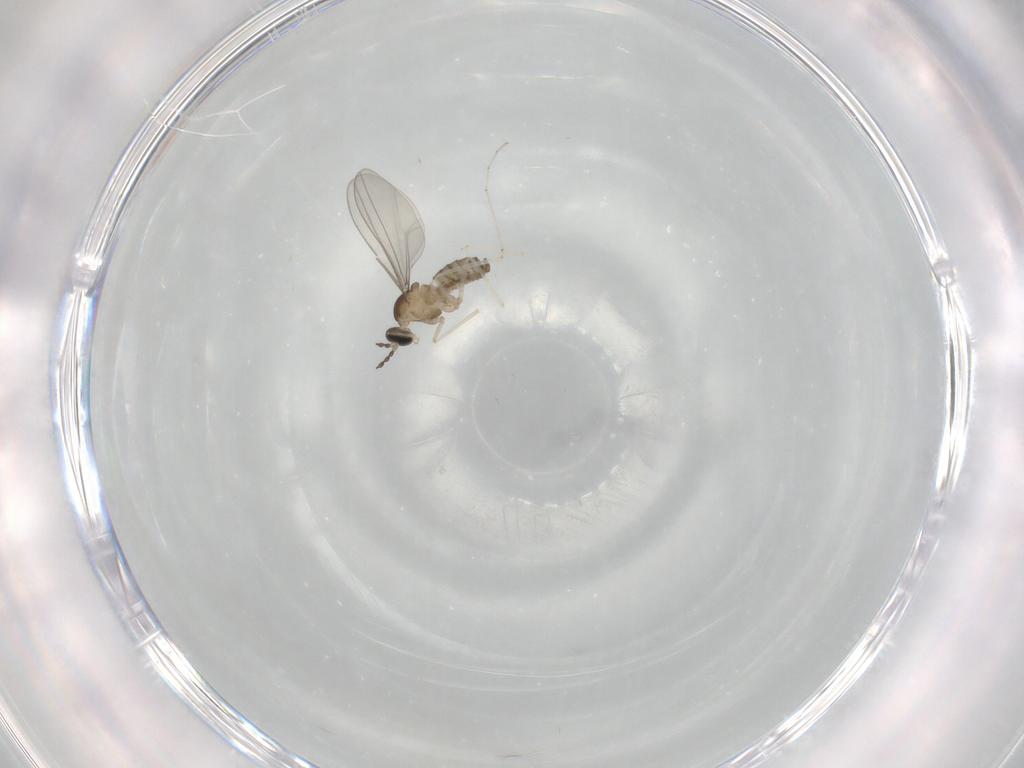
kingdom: Animalia
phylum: Arthropoda
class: Insecta
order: Diptera
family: Cecidomyiidae
